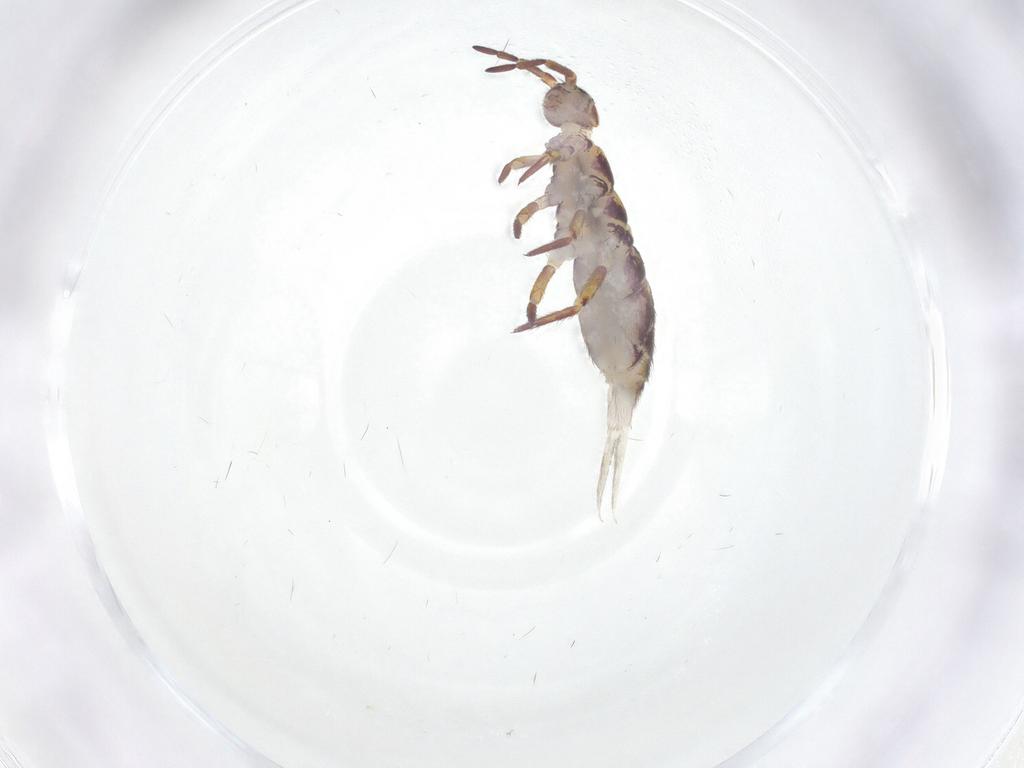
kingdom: Animalia
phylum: Arthropoda
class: Collembola
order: Entomobryomorpha
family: Isotomidae
